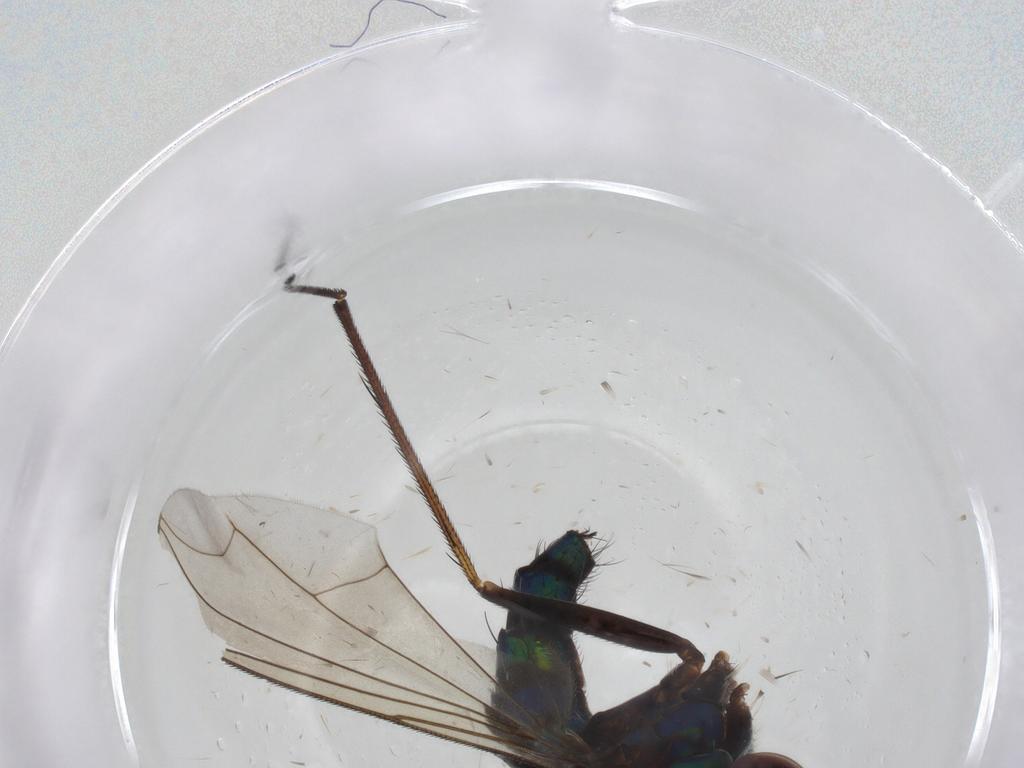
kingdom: Animalia
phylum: Arthropoda
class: Insecta
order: Diptera
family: Dolichopodidae
